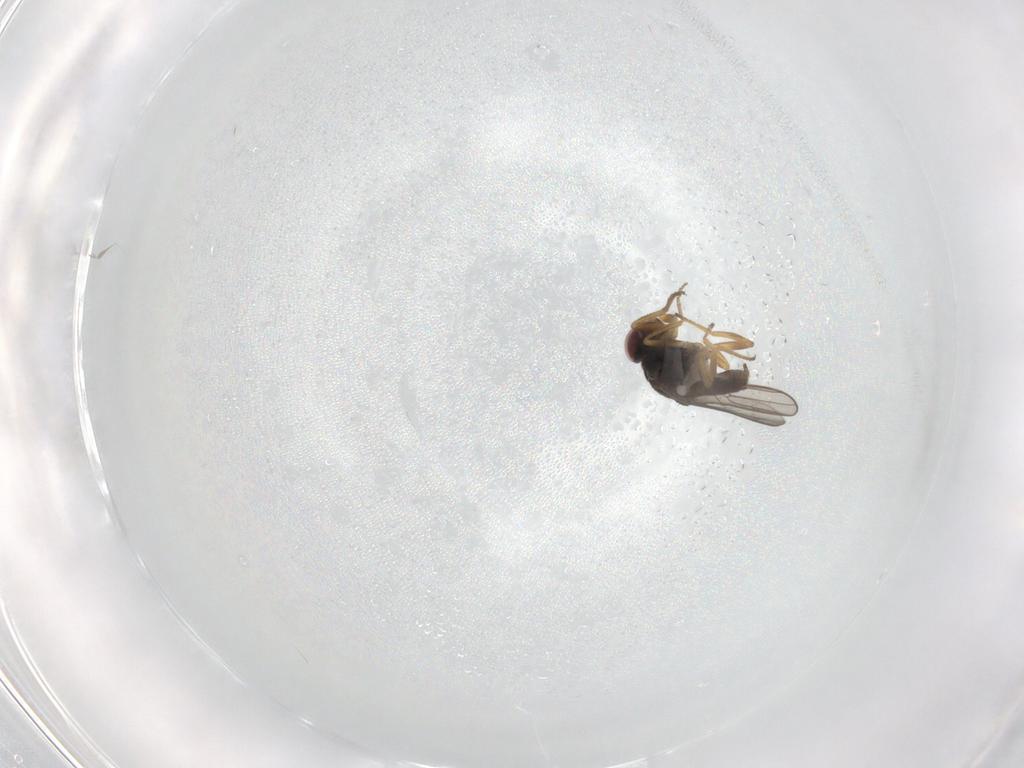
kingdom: Animalia
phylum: Arthropoda
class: Insecta
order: Diptera
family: Chloropidae
